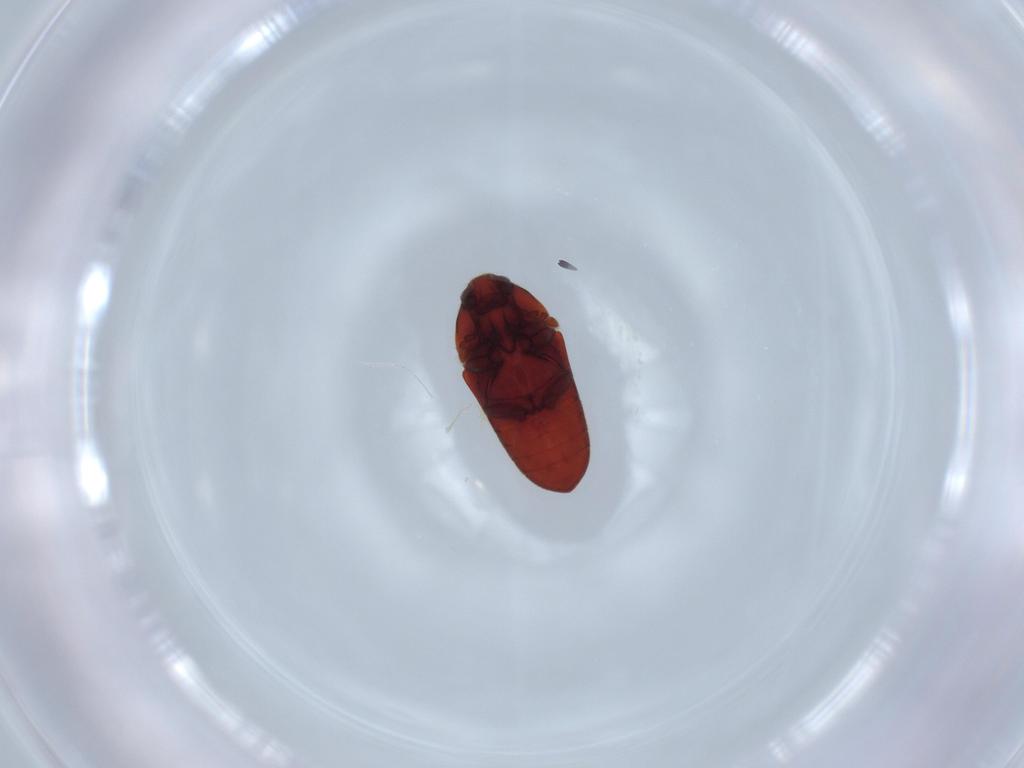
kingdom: Animalia
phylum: Arthropoda
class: Insecta
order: Coleoptera
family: Throscidae
